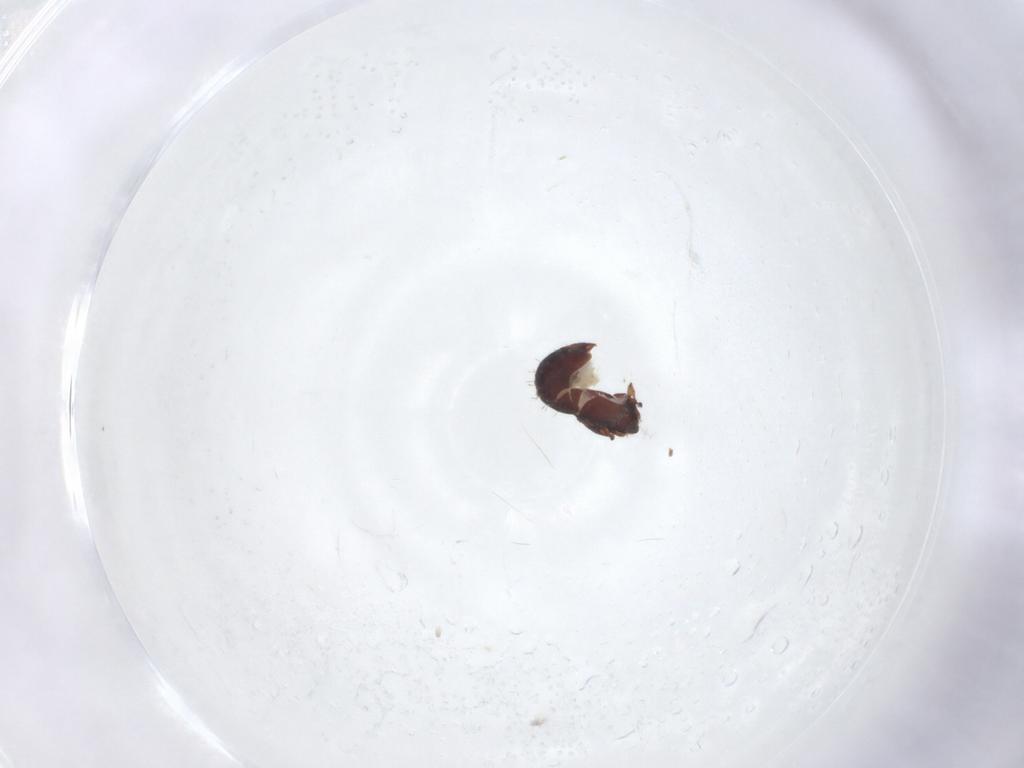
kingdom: Animalia
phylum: Arthropoda
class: Arachnida
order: Sarcoptiformes
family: Humerobatidae
